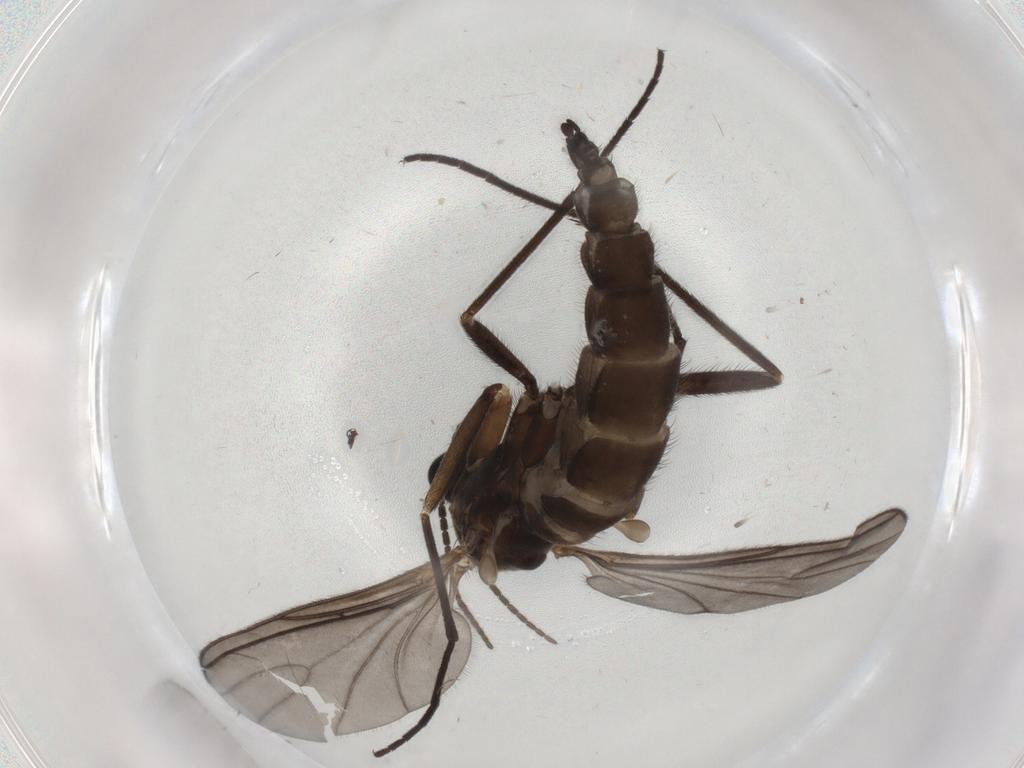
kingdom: Animalia
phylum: Arthropoda
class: Insecta
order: Diptera
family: Sciaridae
